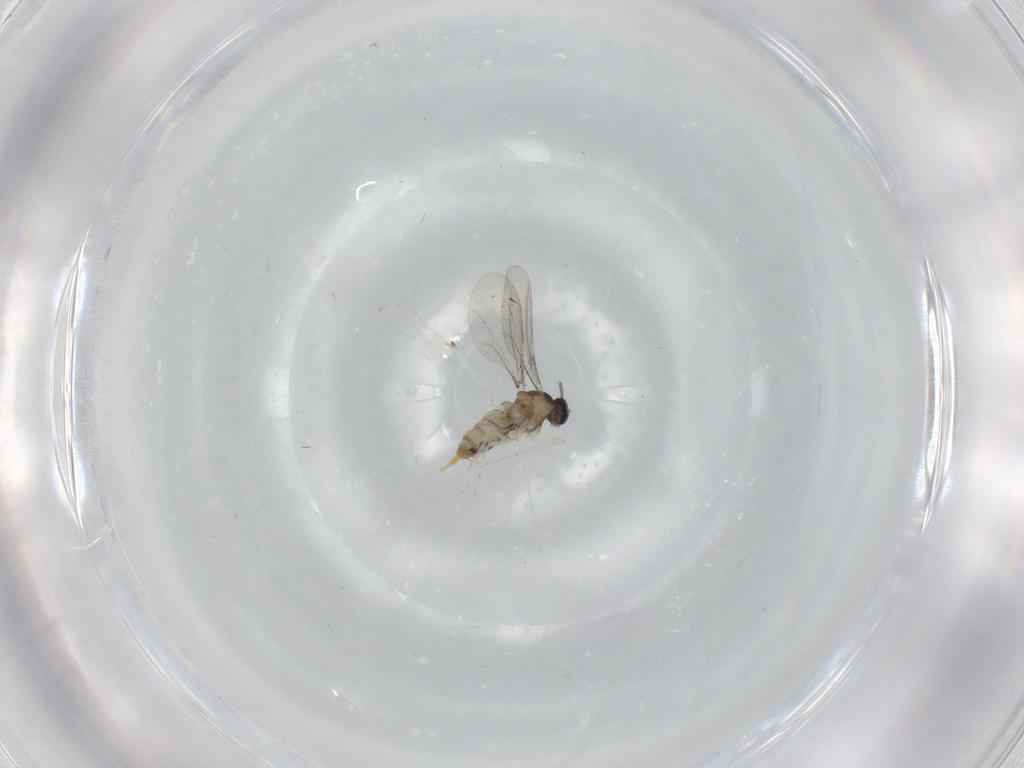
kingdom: Animalia
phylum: Arthropoda
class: Insecta
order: Diptera
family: Cecidomyiidae
